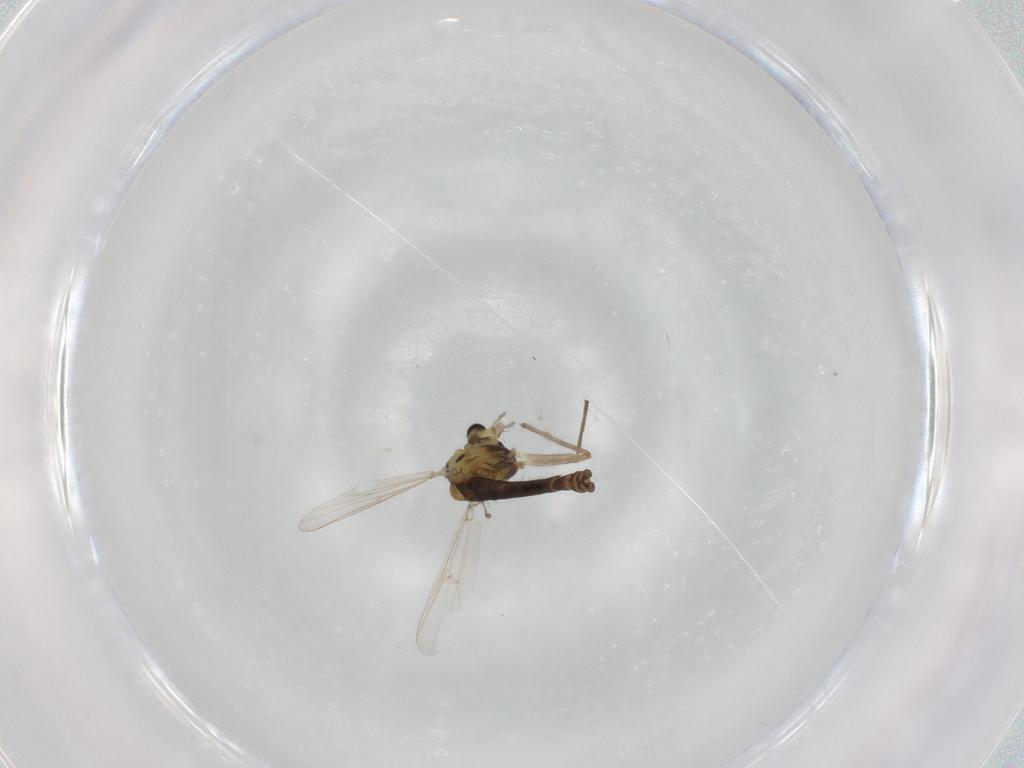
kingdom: Animalia
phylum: Arthropoda
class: Insecta
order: Diptera
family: Chironomidae
